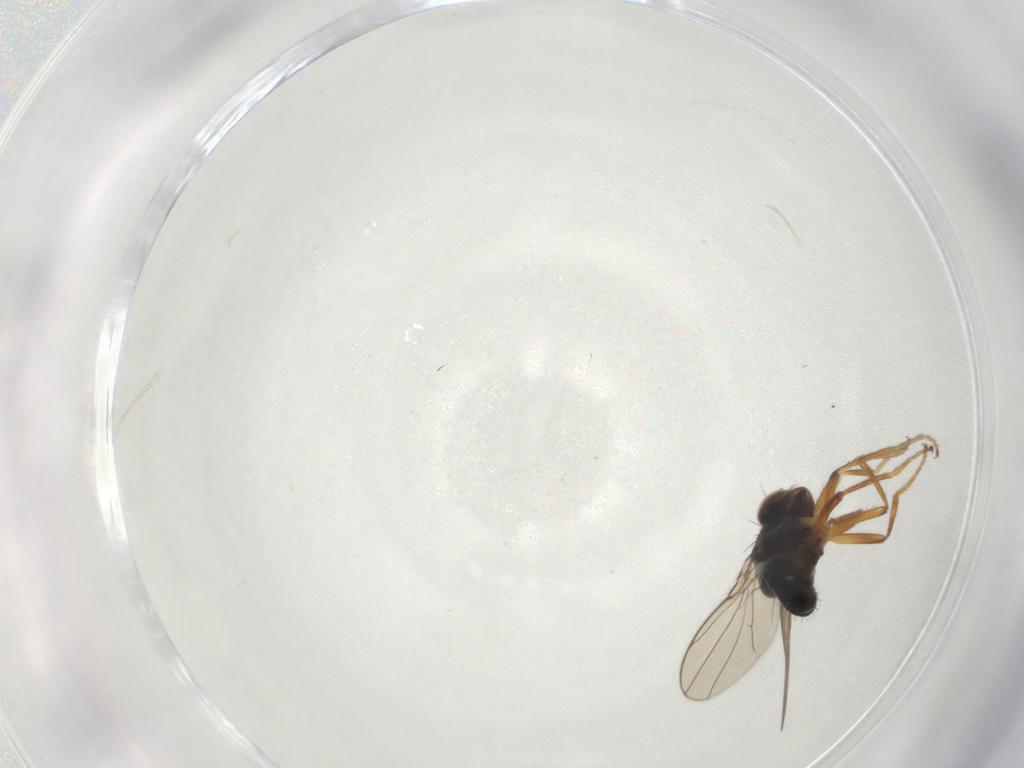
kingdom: Animalia
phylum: Arthropoda
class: Insecta
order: Diptera
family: Ephydridae
